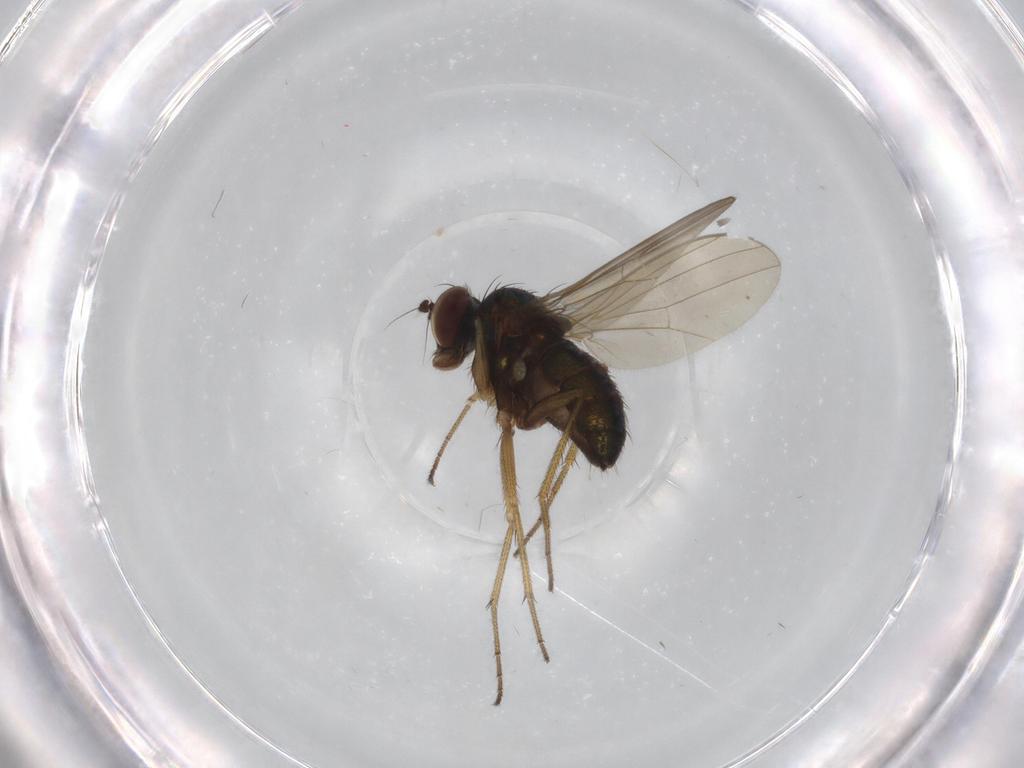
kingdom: Animalia
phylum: Arthropoda
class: Insecta
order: Diptera
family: Dolichopodidae
